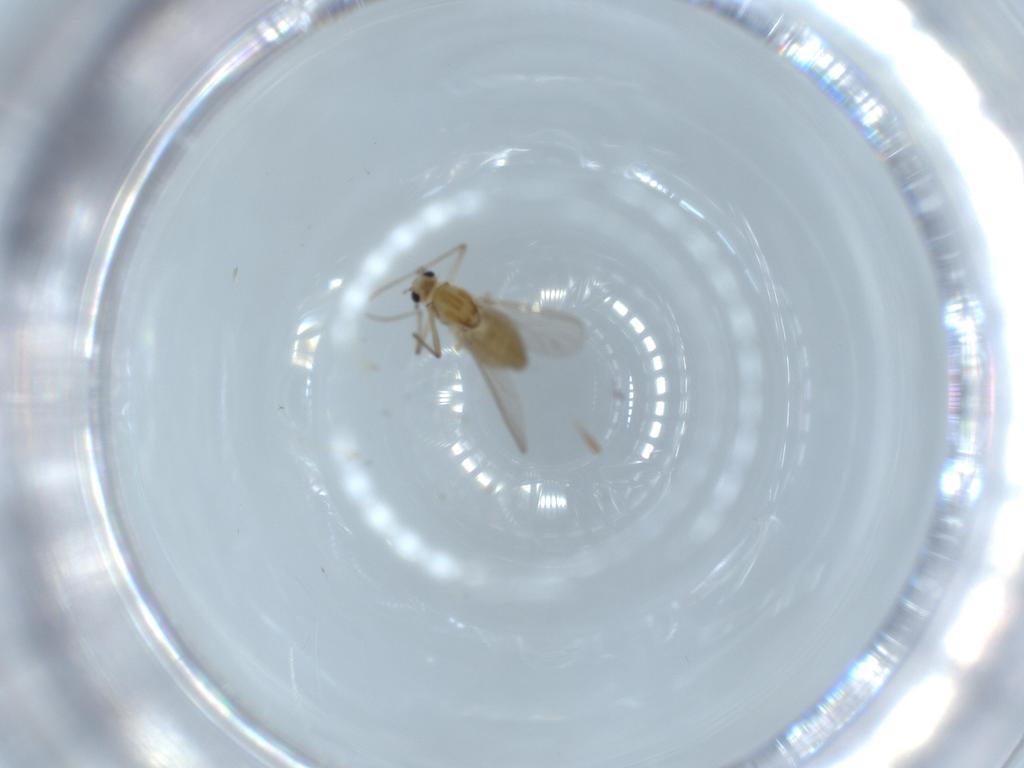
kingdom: Animalia
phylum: Arthropoda
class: Insecta
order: Diptera
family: Chironomidae
